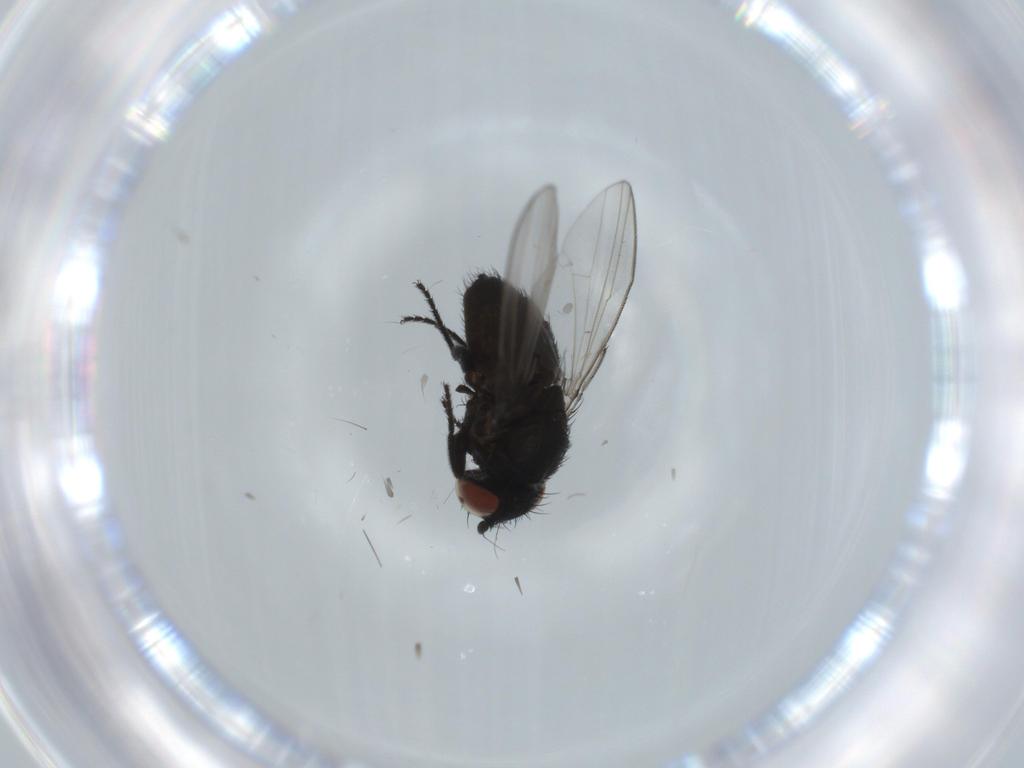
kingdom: Animalia
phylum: Arthropoda
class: Insecta
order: Diptera
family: Milichiidae
